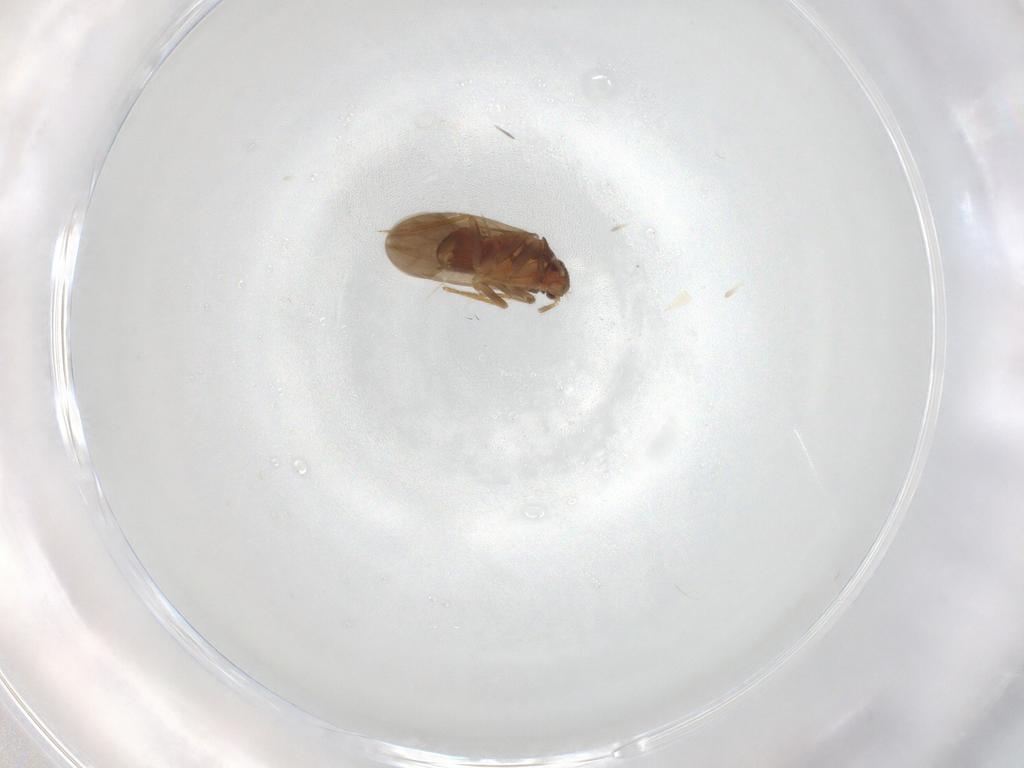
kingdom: Animalia
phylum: Arthropoda
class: Insecta
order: Hemiptera
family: Ceratocombidae
